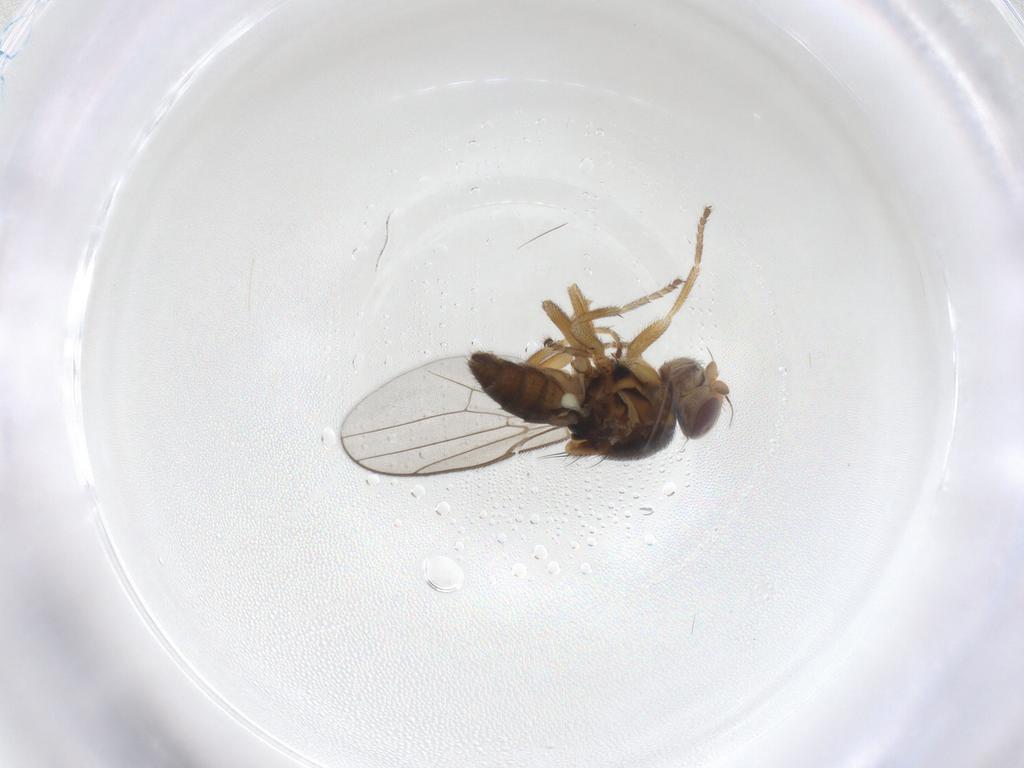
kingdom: Animalia
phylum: Arthropoda
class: Insecta
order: Diptera
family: Chloropidae
